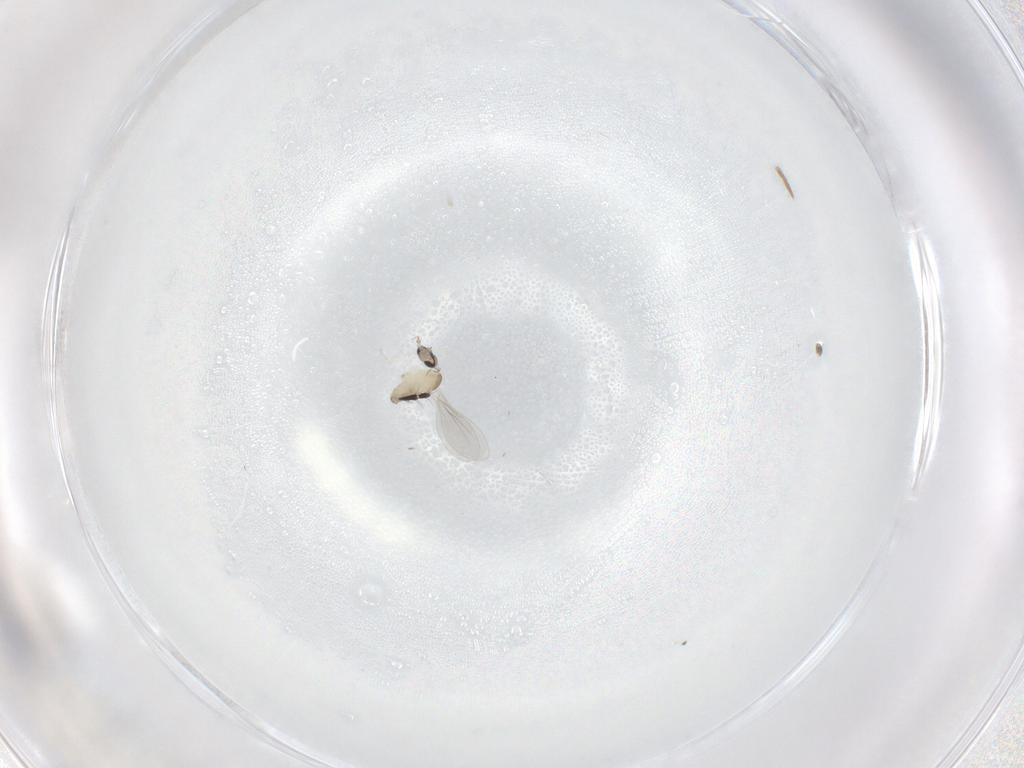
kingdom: Animalia
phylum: Arthropoda
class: Insecta
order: Diptera
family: Cecidomyiidae
